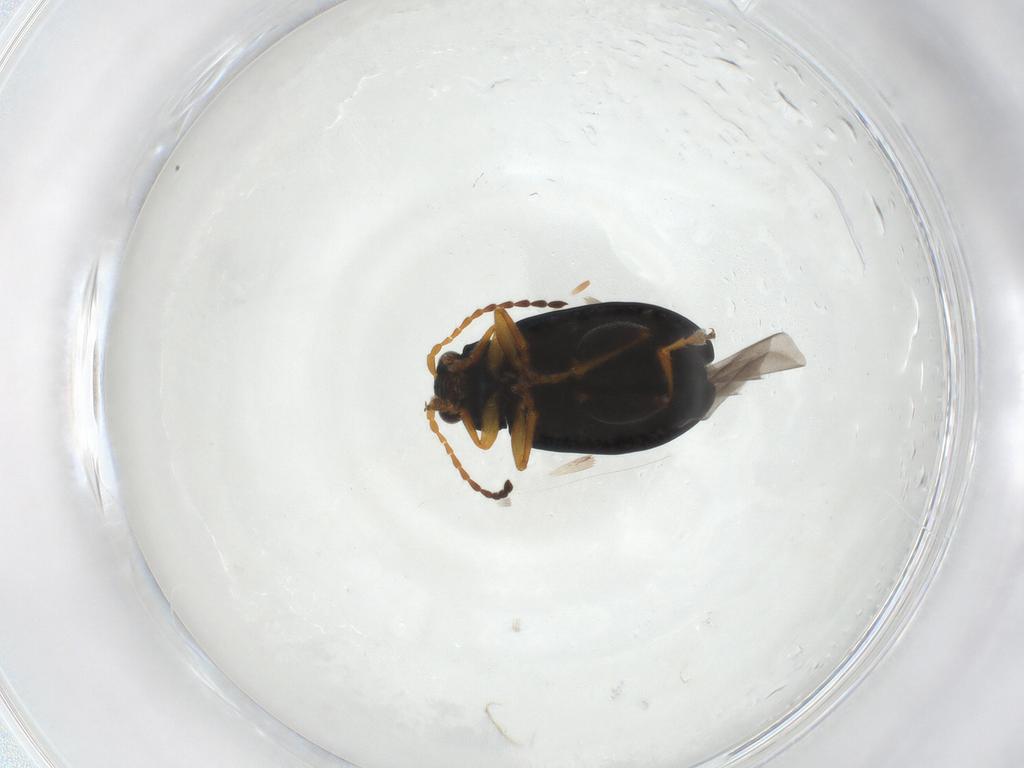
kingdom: Animalia
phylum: Arthropoda
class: Insecta
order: Coleoptera
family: Chrysomelidae
